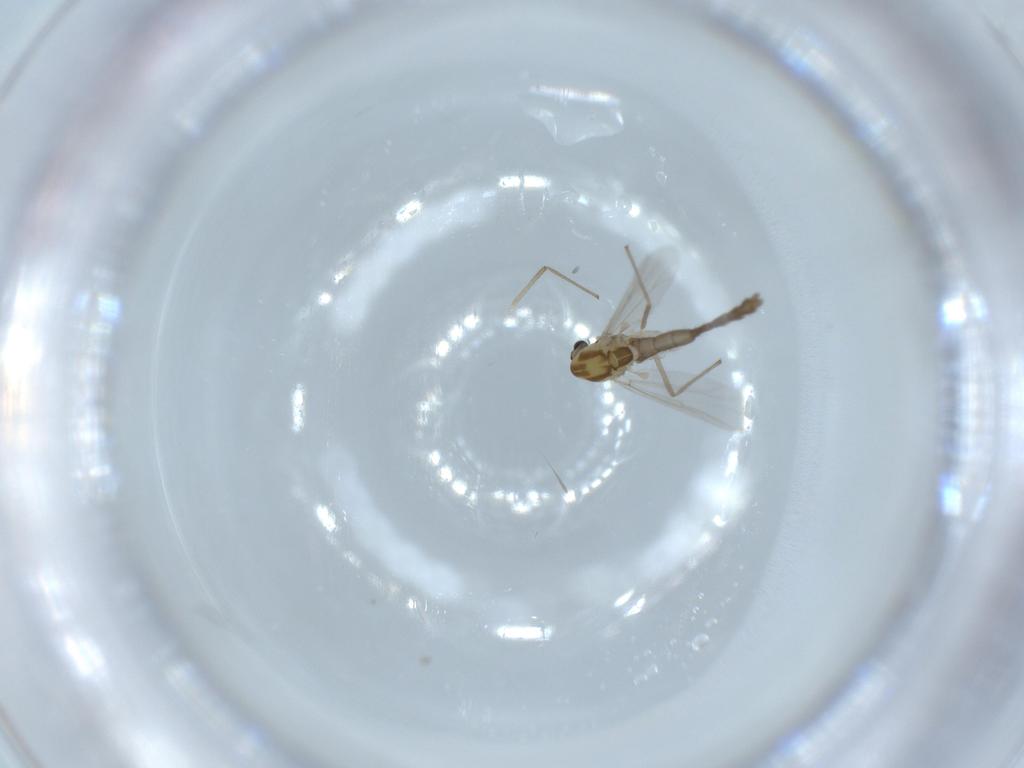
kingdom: Animalia
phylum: Arthropoda
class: Insecta
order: Diptera
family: Chironomidae
